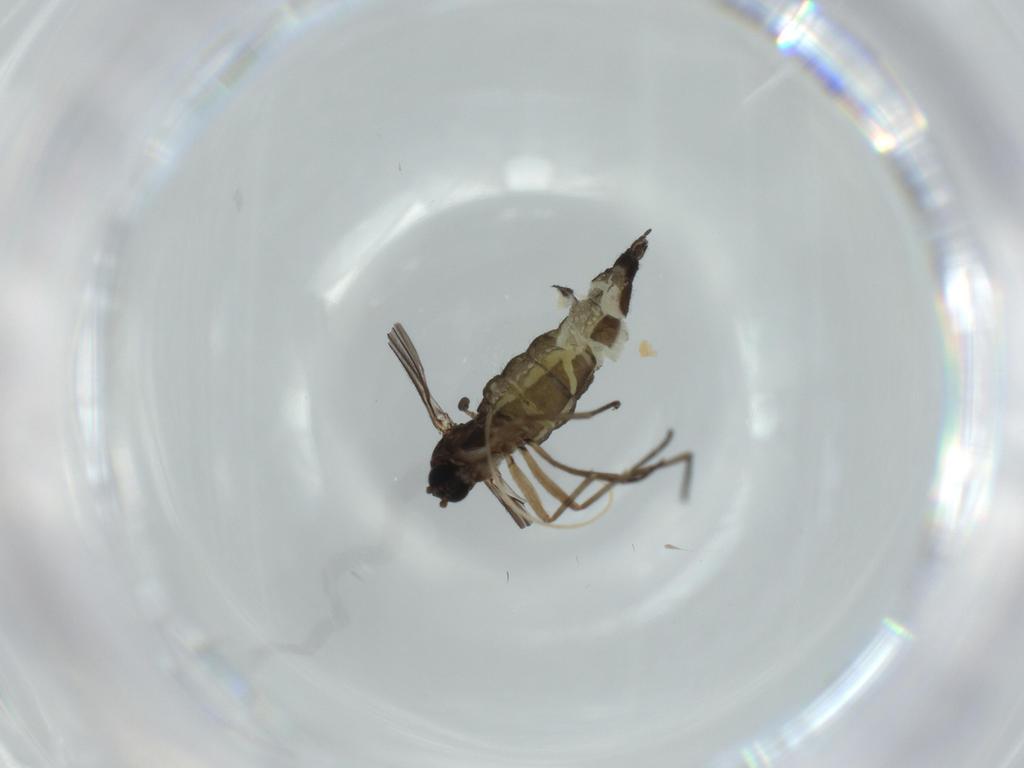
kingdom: Animalia
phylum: Arthropoda
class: Insecta
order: Diptera
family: Sciaridae
